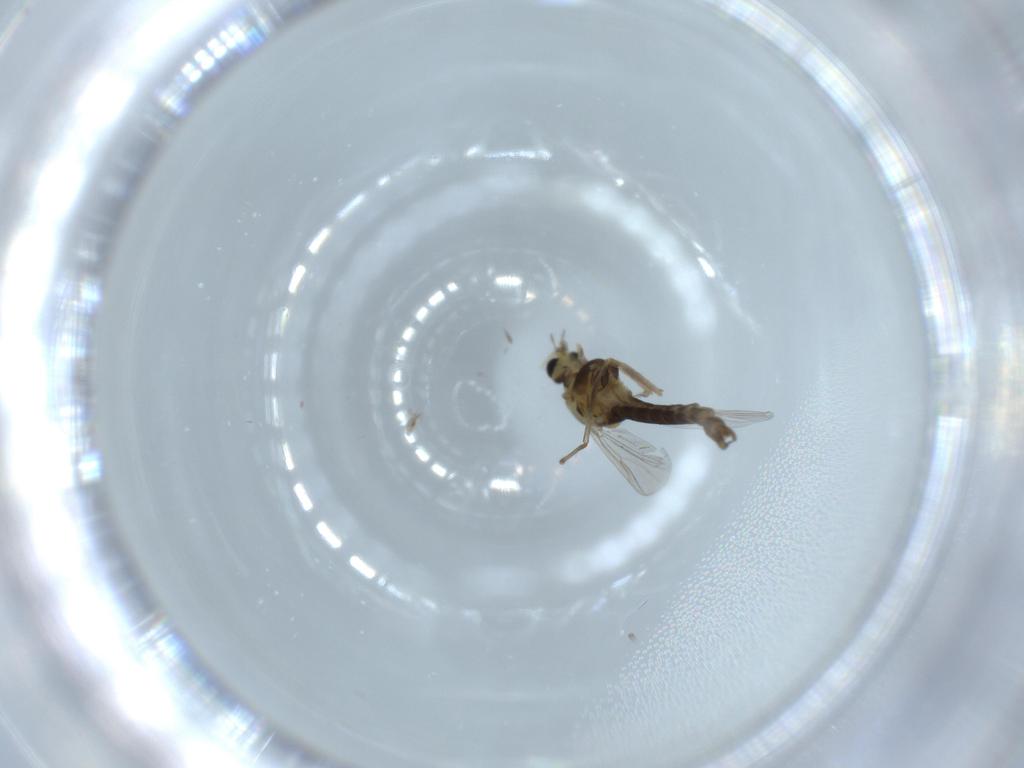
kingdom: Animalia
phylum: Arthropoda
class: Insecta
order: Diptera
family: Chironomidae
